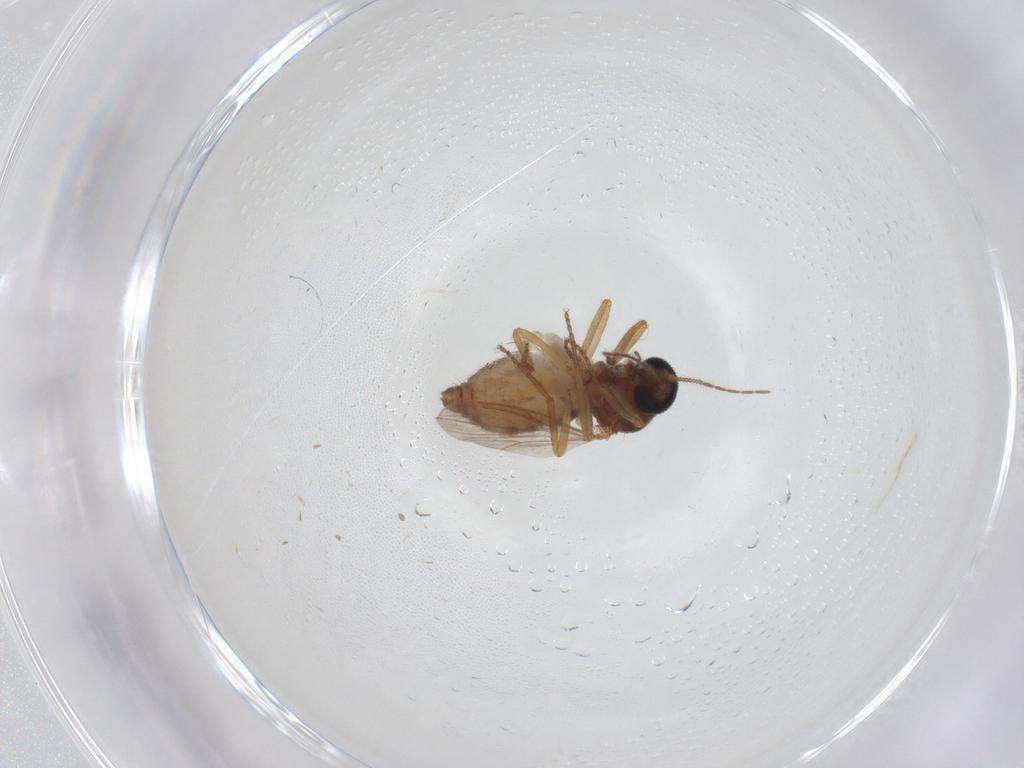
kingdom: Animalia
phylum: Arthropoda
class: Insecta
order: Diptera
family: Ceratopogonidae
